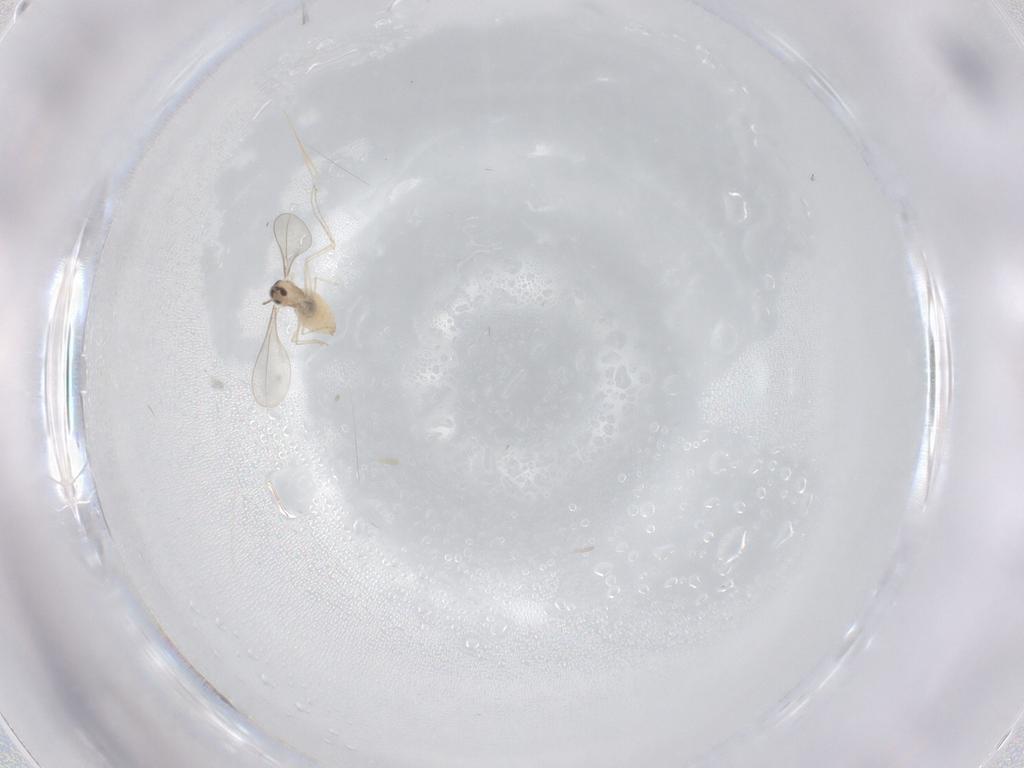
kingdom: Animalia
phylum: Arthropoda
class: Insecta
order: Diptera
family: Cecidomyiidae
